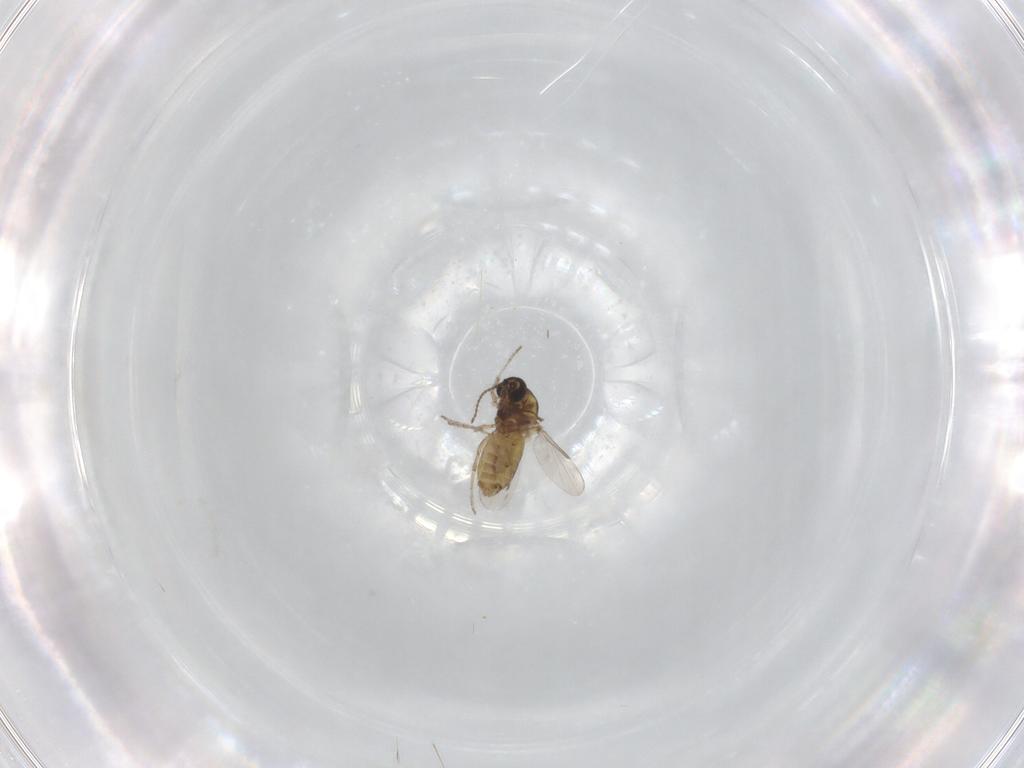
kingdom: Animalia
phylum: Arthropoda
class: Insecta
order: Diptera
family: Ceratopogonidae
